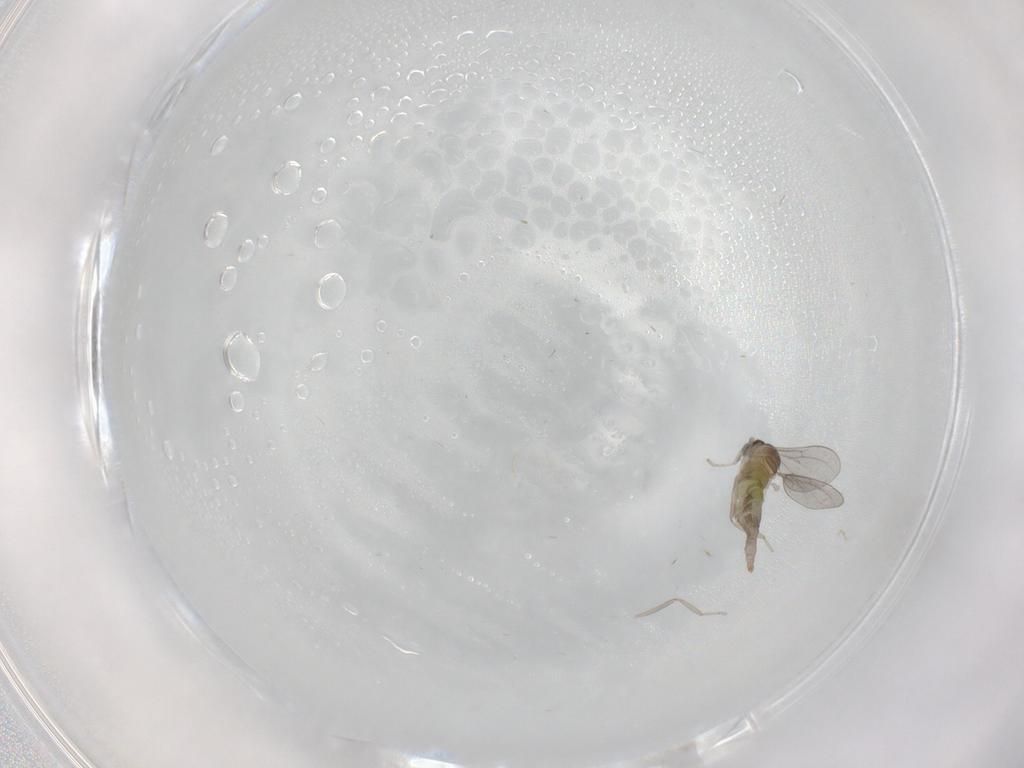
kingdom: Animalia
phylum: Arthropoda
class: Insecta
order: Diptera
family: Cecidomyiidae
